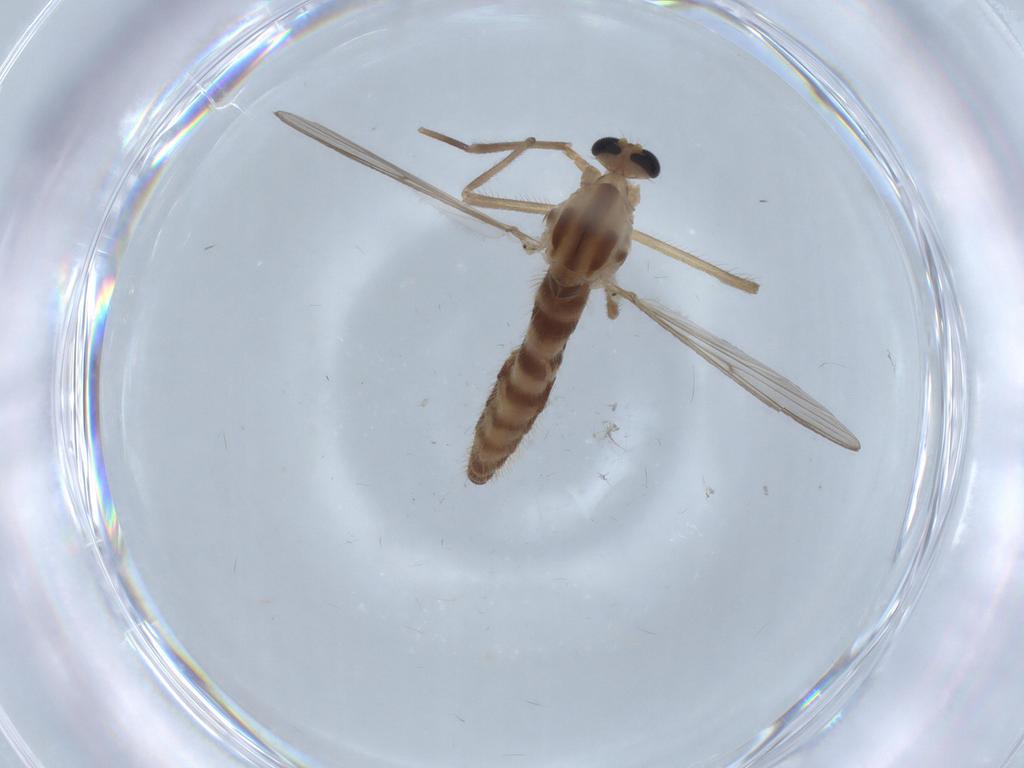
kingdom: Animalia
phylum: Arthropoda
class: Insecta
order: Diptera
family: Chironomidae
